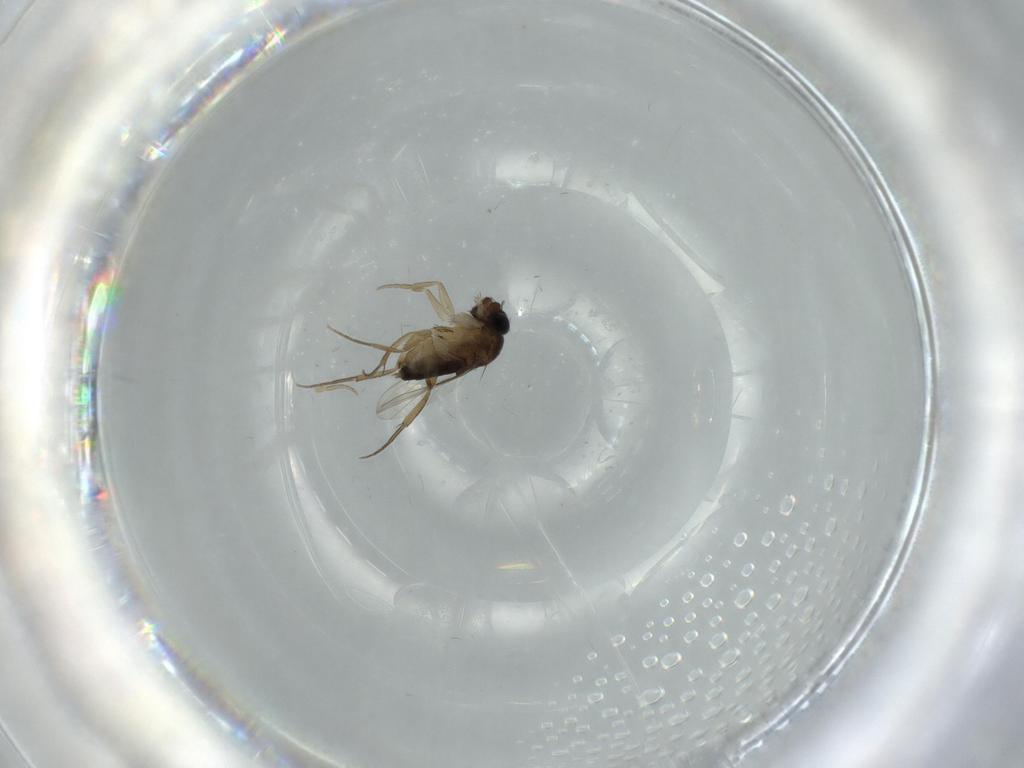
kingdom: Animalia
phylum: Arthropoda
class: Insecta
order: Diptera
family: Phoridae
